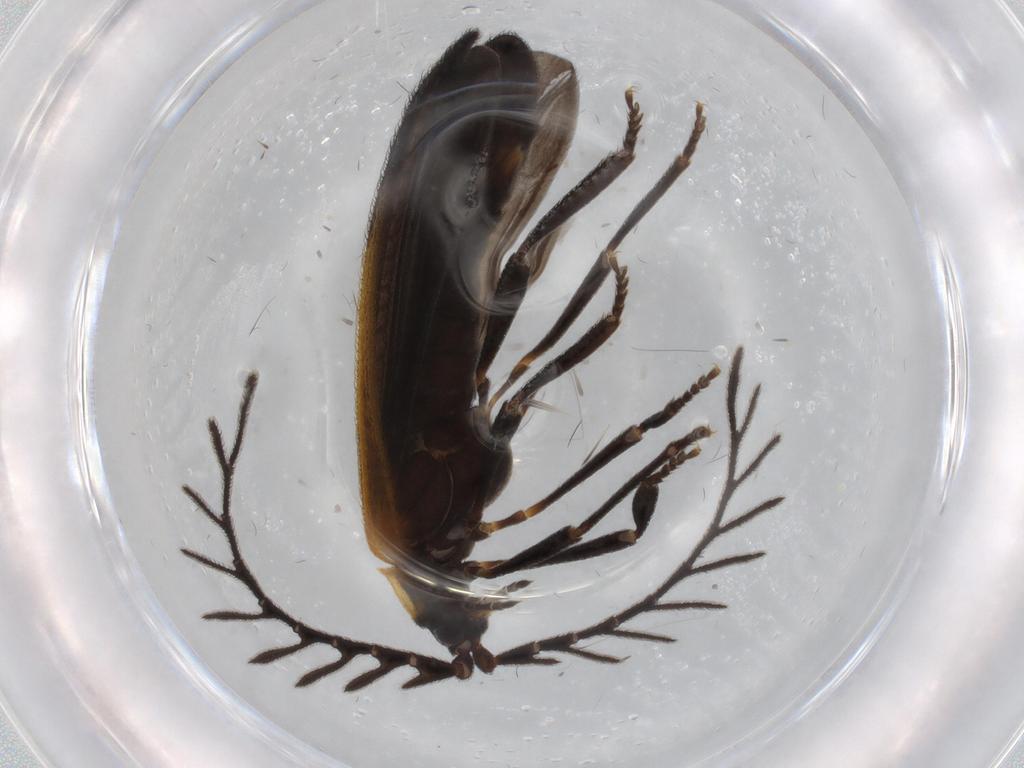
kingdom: Animalia
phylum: Arthropoda
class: Insecta
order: Coleoptera
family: Lycidae
